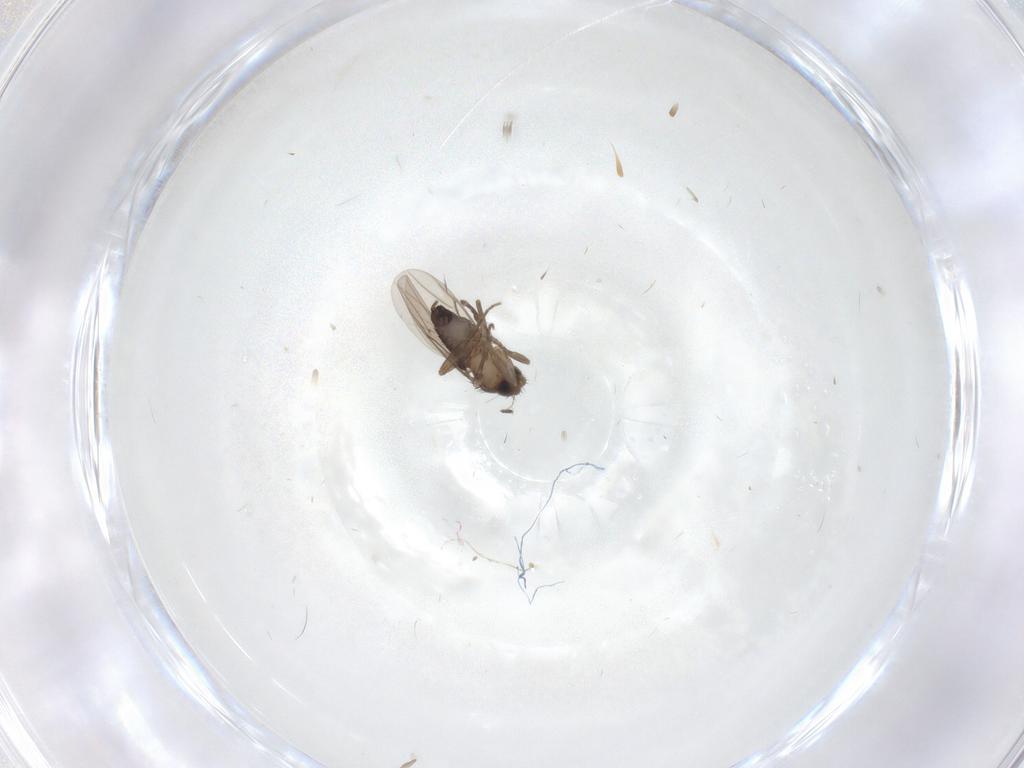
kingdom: Animalia
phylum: Arthropoda
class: Insecta
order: Diptera
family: Phoridae
